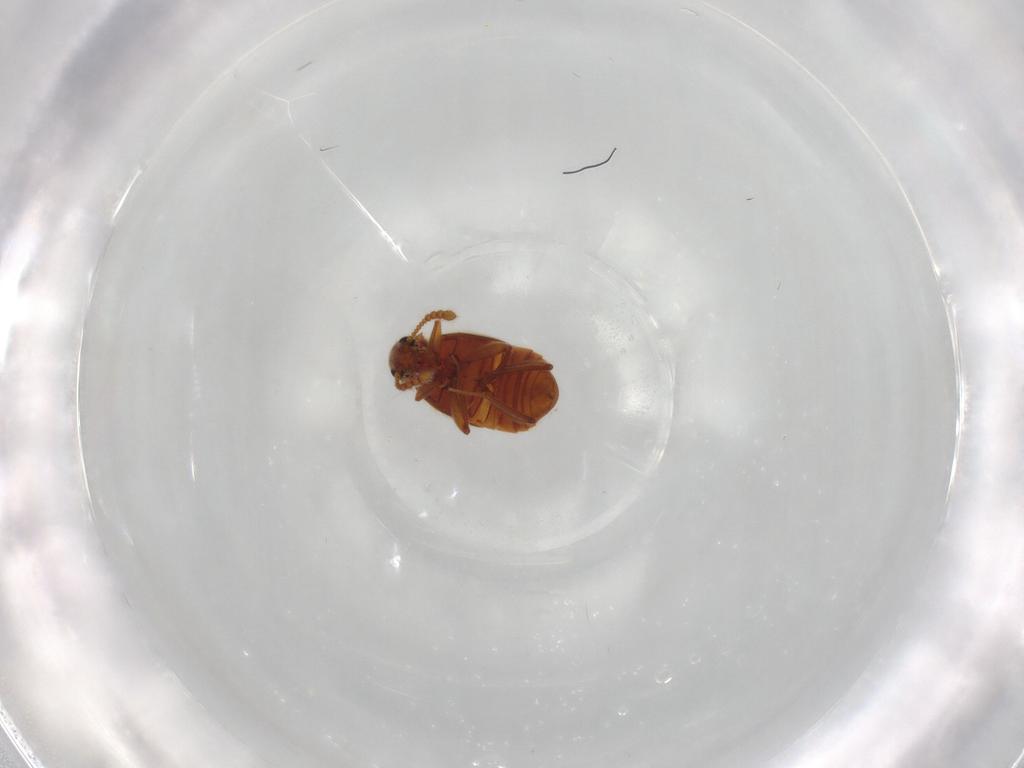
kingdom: Animalia
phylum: Arthropoda
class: Insecta
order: Coleoptera
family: Staphylinidae
